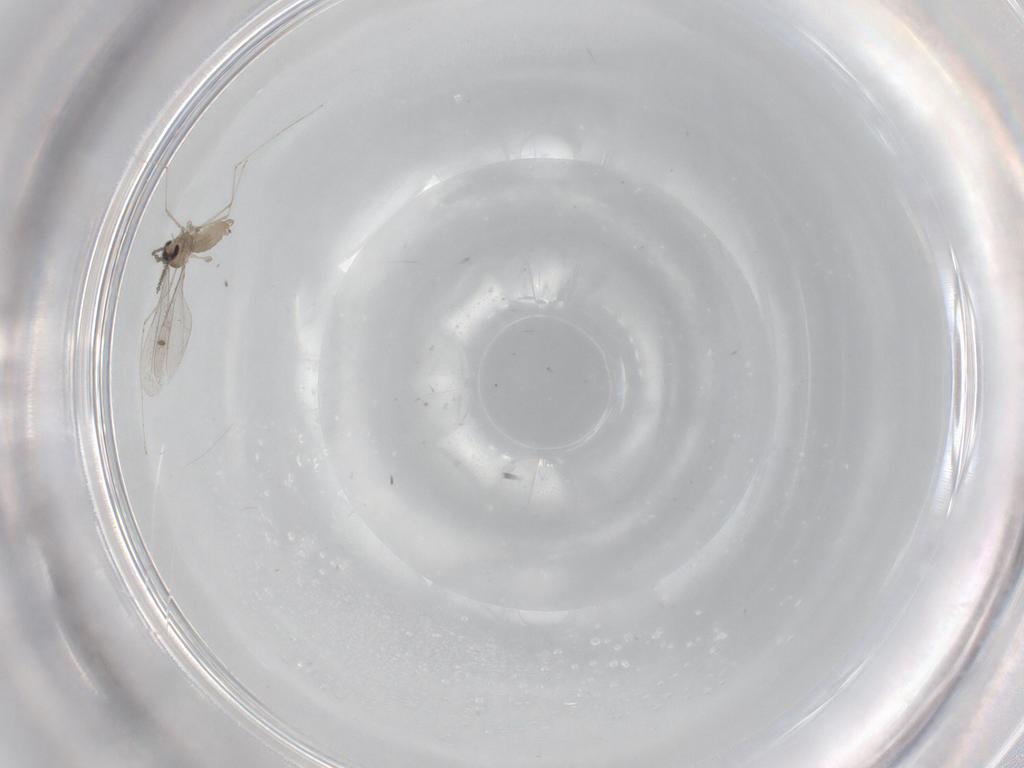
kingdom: Animalia
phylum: Arthropoda
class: Insecta
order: Diptera
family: Cecidomyiidae
